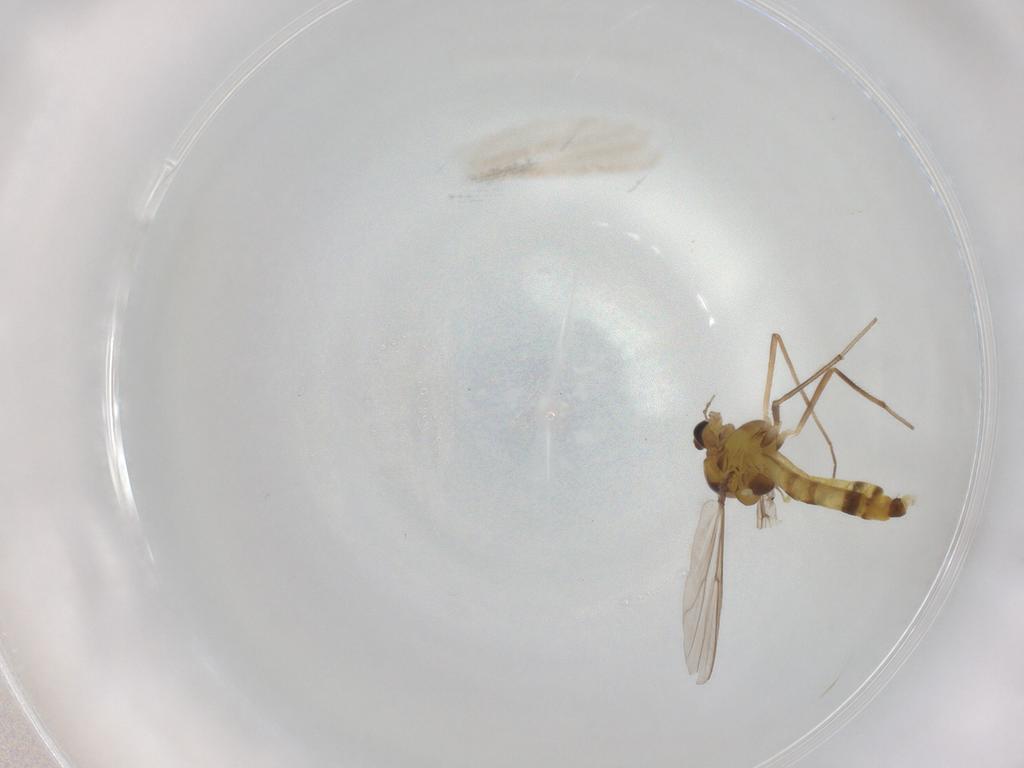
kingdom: Animalia
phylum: Arthropoda
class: Insecta
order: Diptera
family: Chironomidae
